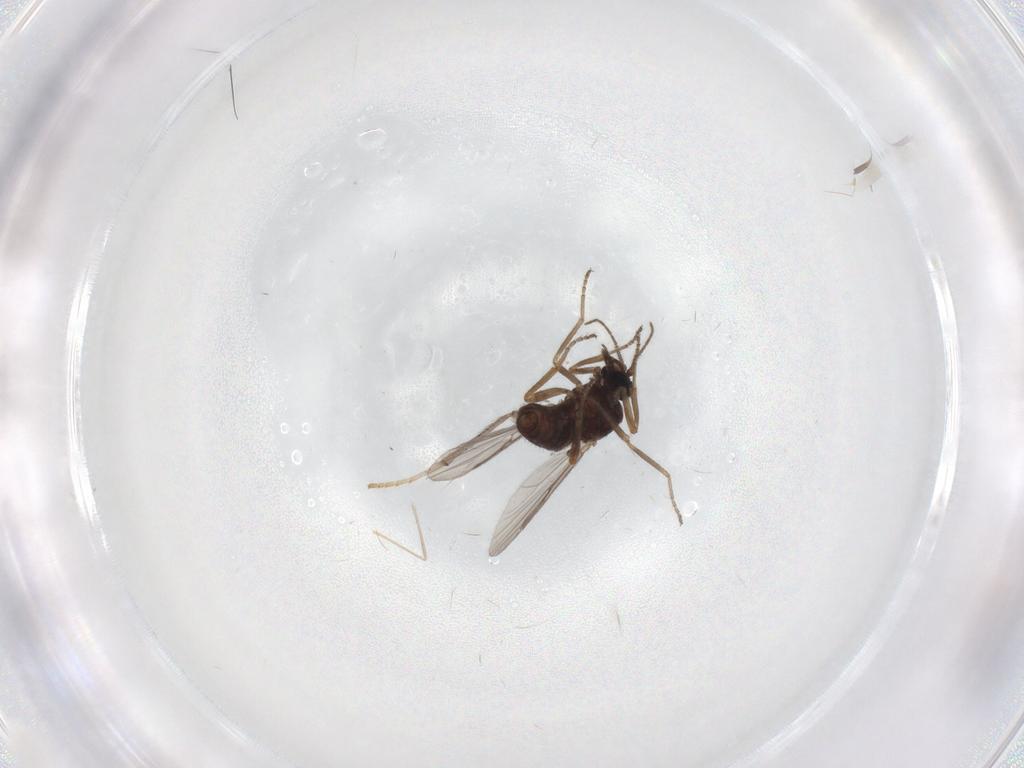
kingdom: Animalia
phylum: Arthropoda
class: Insecta
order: Diptera
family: Ceratopogonidae
